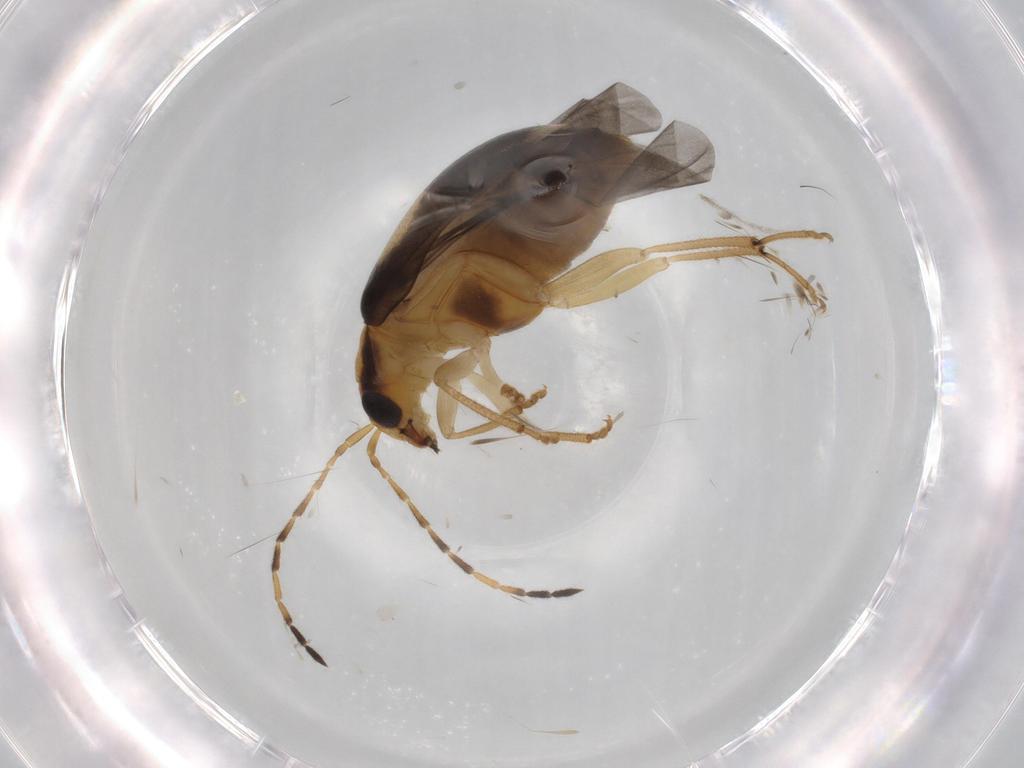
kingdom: Animalia
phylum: Arthropoda
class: Insecta
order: Coleoptera
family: Chrysomelidae
